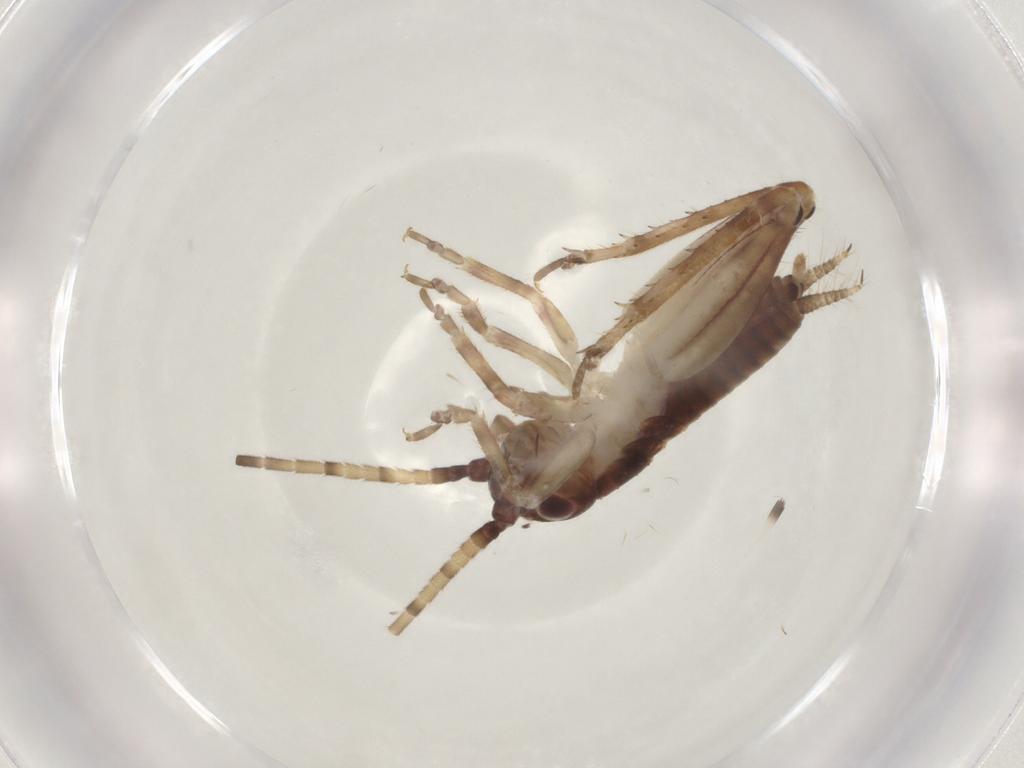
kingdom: Animalia
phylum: Arthropoda
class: Insecta
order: Orthoptera
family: Gryllidae
